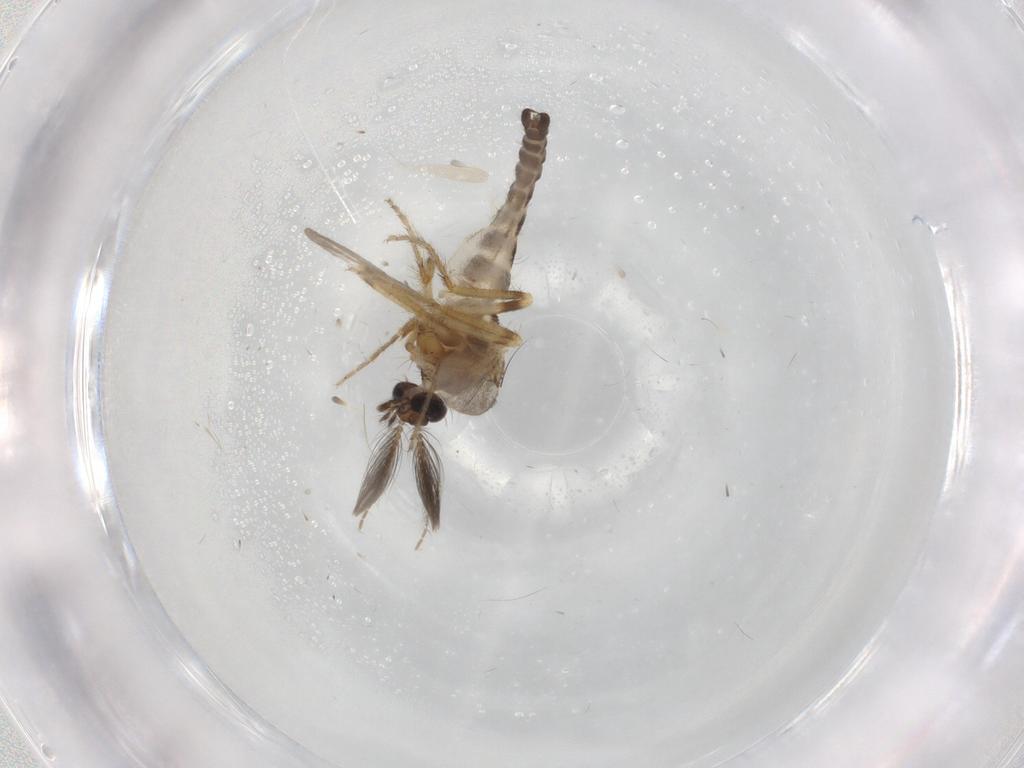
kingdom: Animalia
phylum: Arthropoda
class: Insecta
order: Diptera
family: Ceratopogonidae
